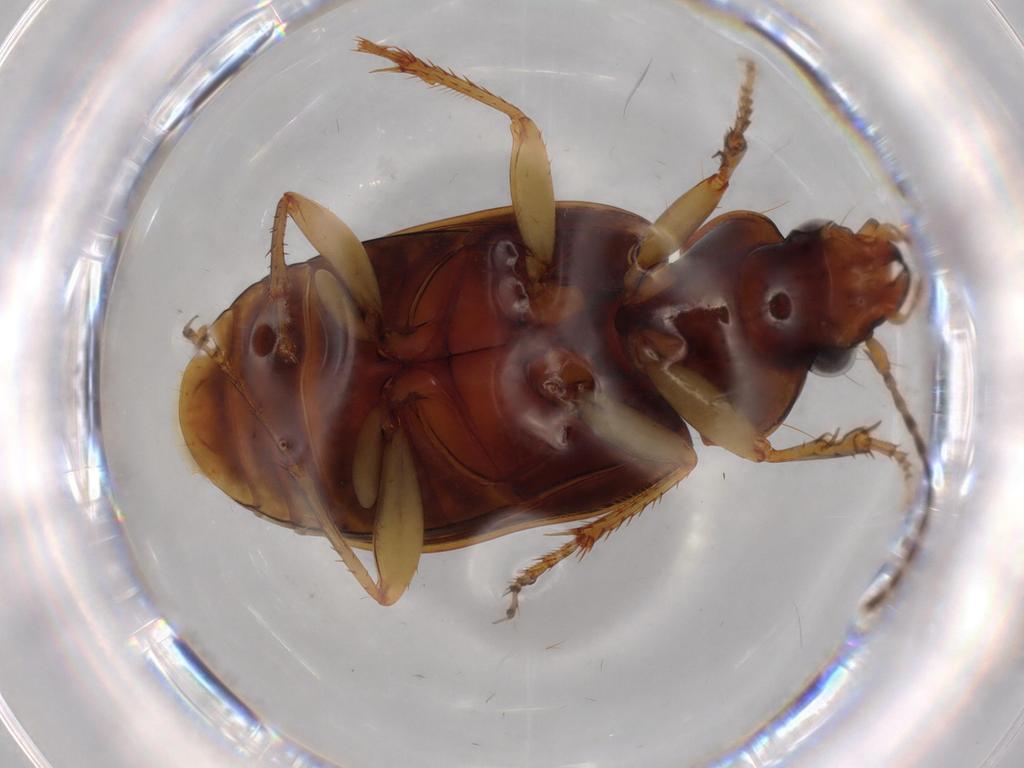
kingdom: Animalia
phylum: Arthropoda
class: Insecta
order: Coleoptera
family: Carabidae
